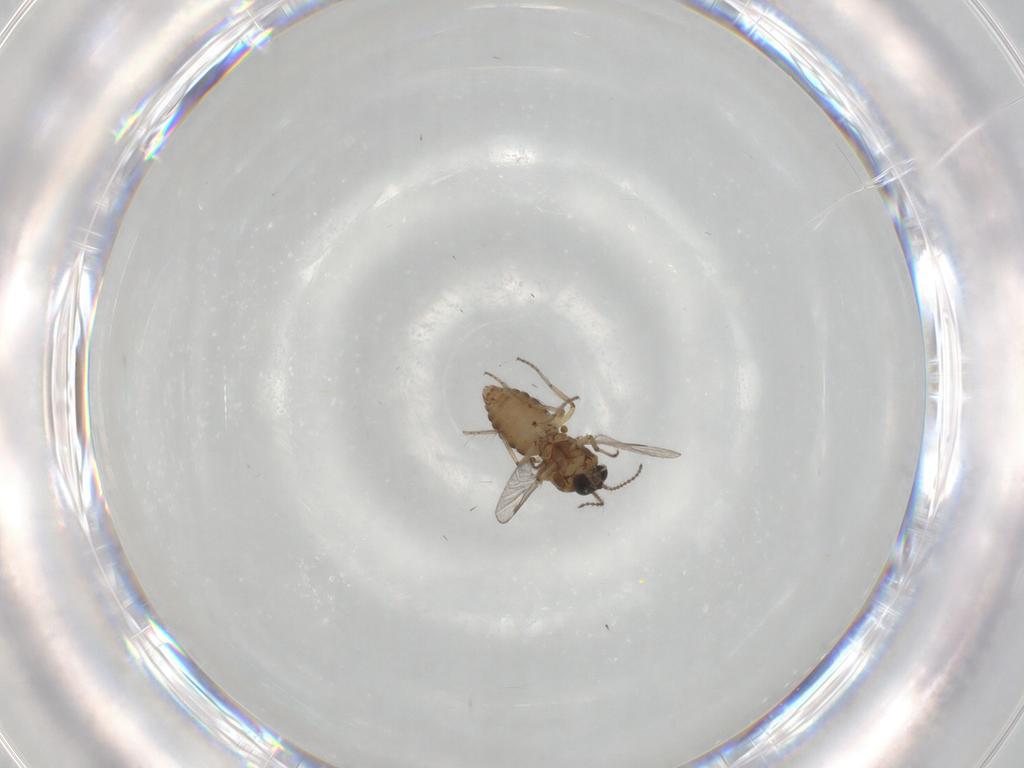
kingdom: Animalia
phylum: Arthropoda
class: Insecta
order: Diptera
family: Ceratopogonidae
